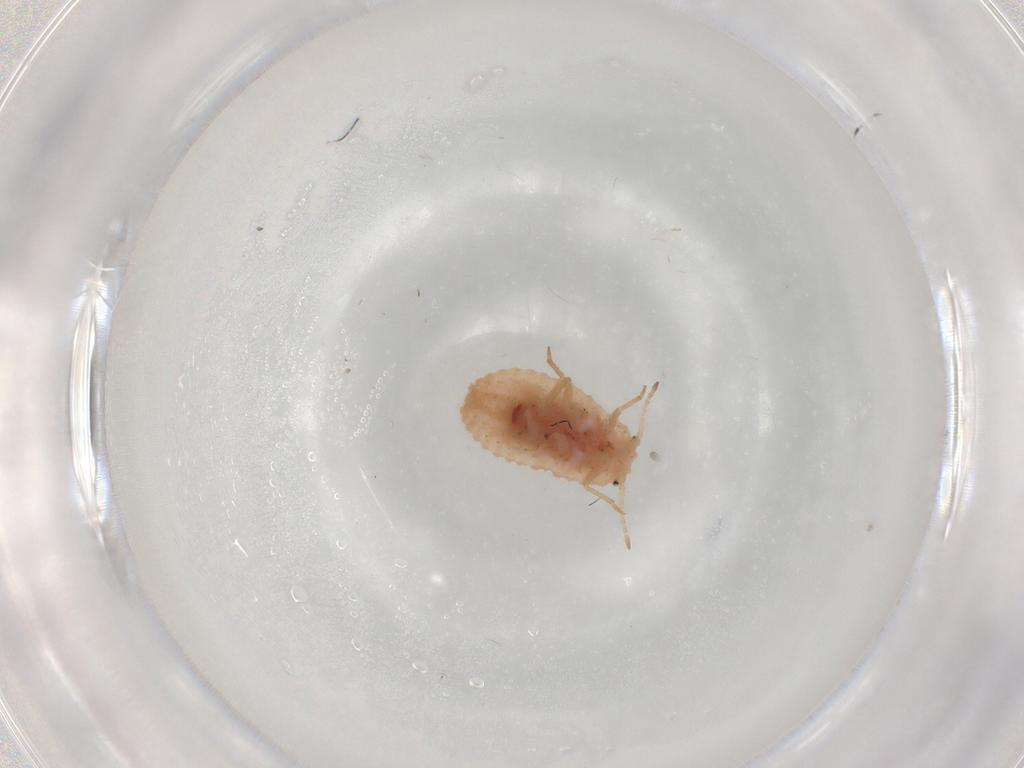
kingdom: Animalia
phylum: Arthropoda
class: Insecta
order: Hemiptera
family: Coccoidea_incertae_sedis
